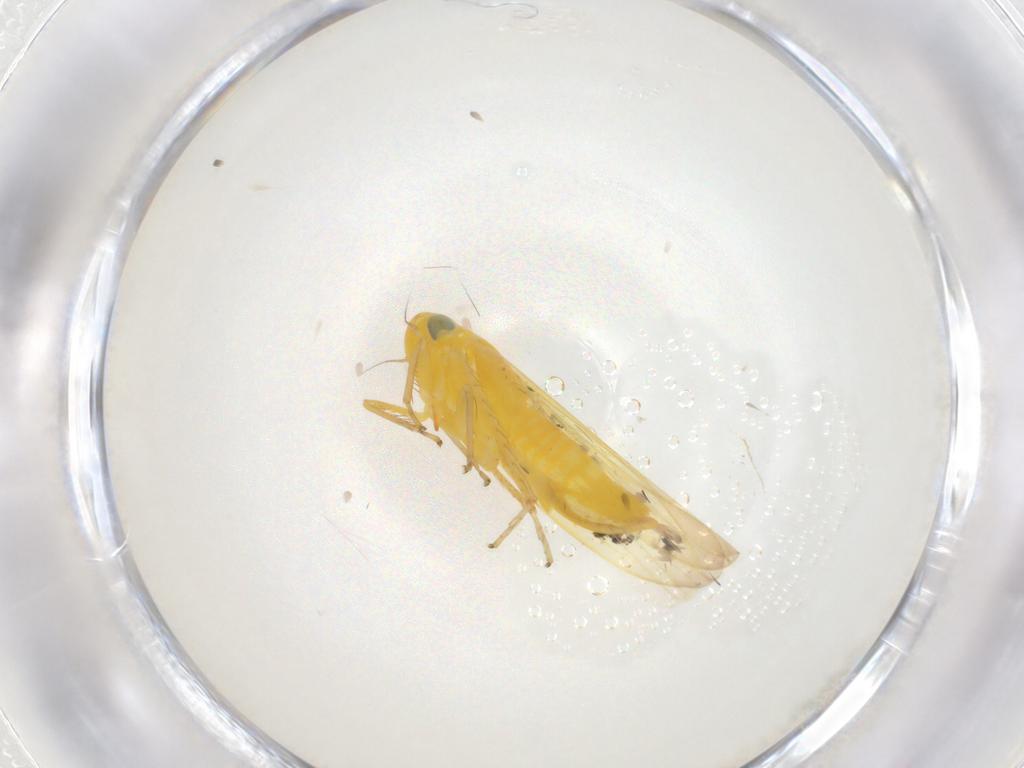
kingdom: Animalia
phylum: Arthropoda
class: Insecta
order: Hemiptera
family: Cicadellidae
